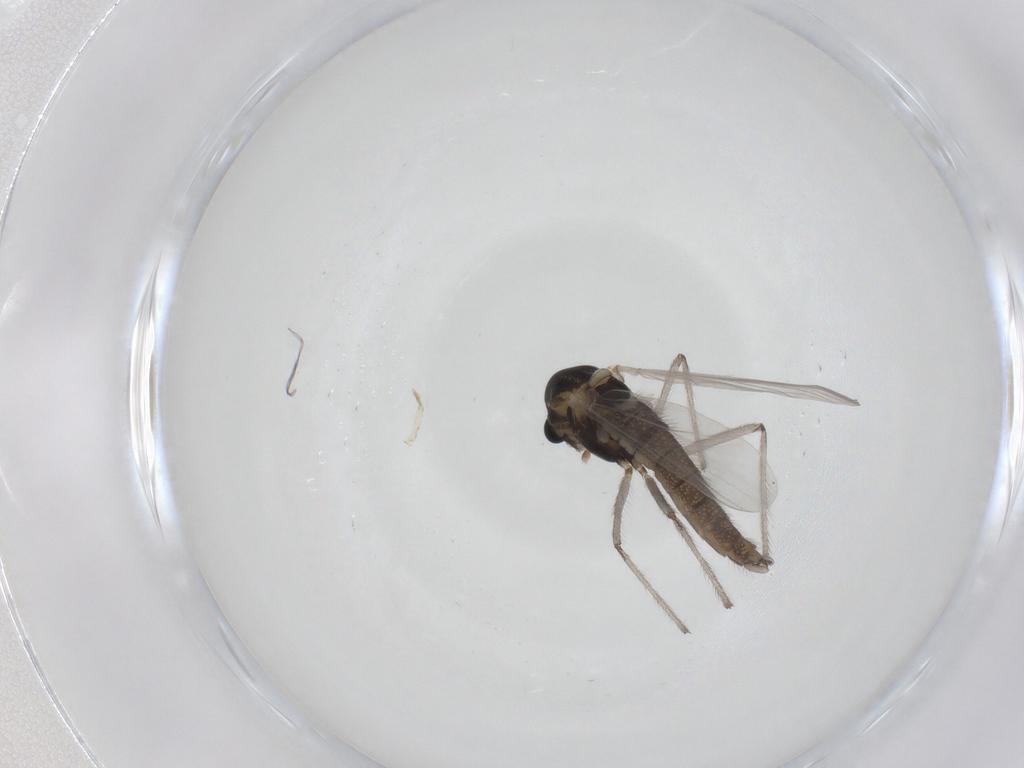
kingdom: Animalia
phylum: Arthropoda
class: Insecta
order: Diptera
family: Chironomidae
